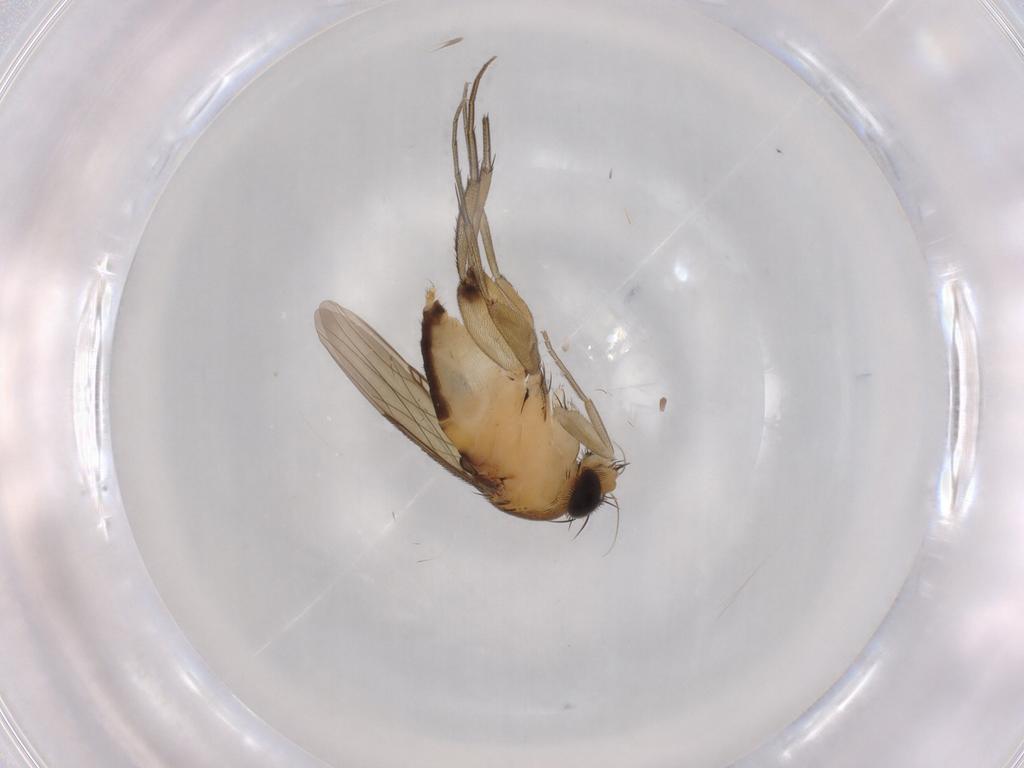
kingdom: Animalia
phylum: Arthropoda
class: Insecta
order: Diptera
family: Phoridae
